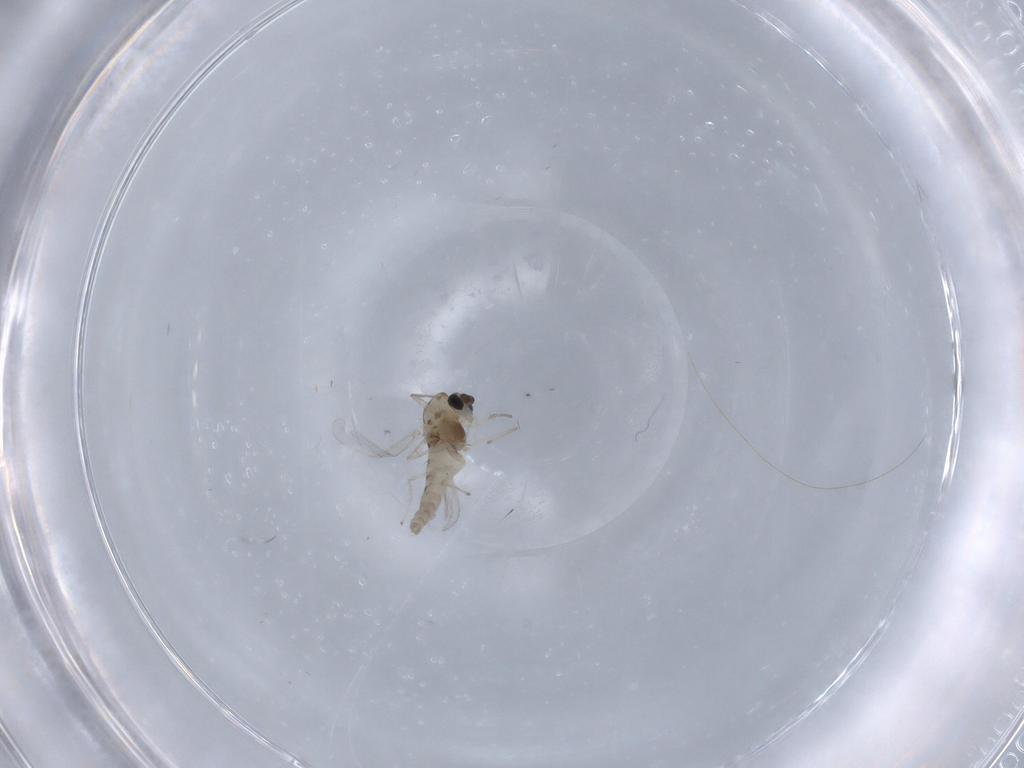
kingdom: Animalia
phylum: Arthropoda
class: Insecta
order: Diptera
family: Chironomidae
